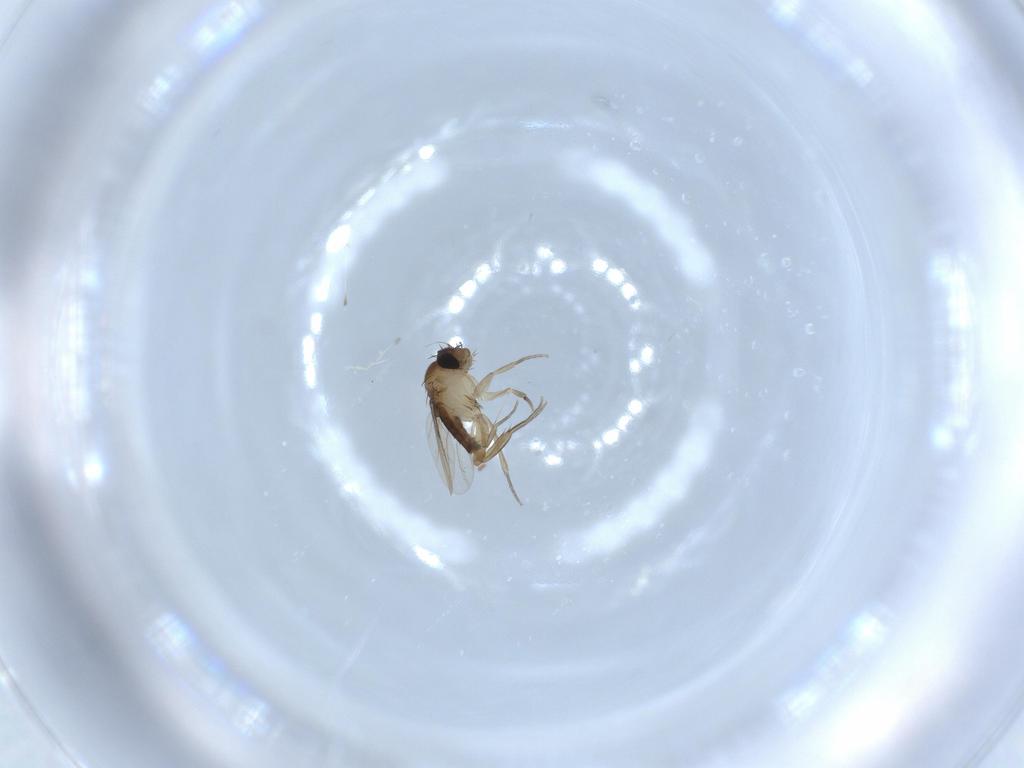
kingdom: Animalia
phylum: Arthropoda
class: Insecta
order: Diptera
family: Phoridae
